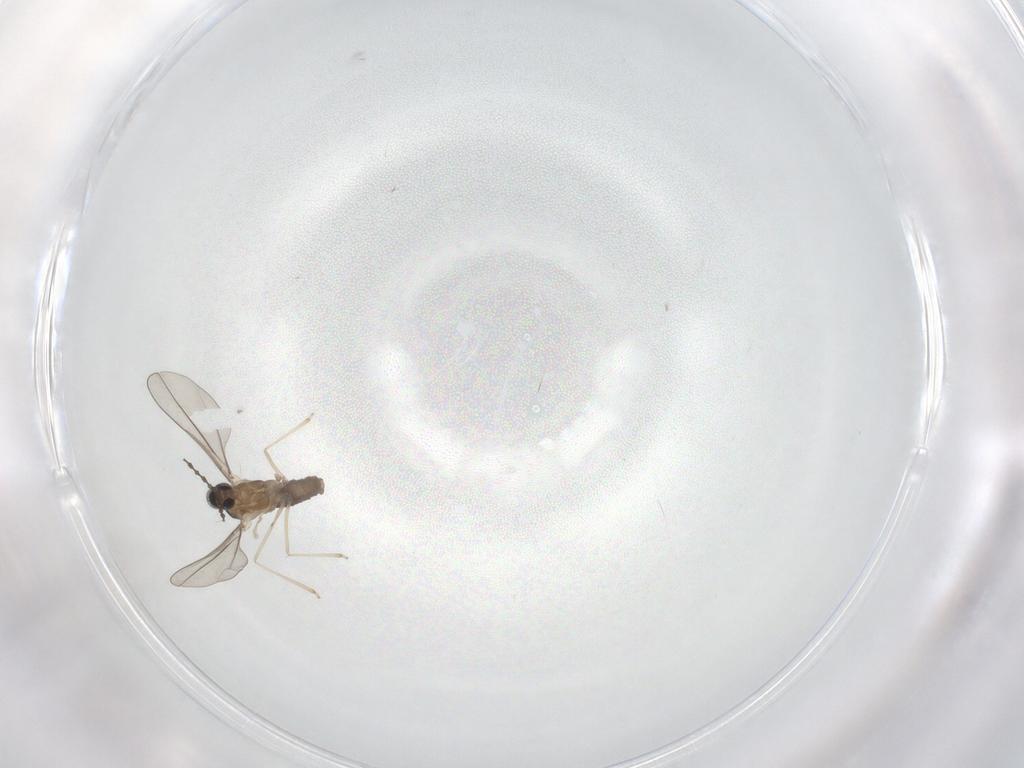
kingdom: Animalia
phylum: Arthropoda
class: Insecta
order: Diptera
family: Cecidomyiidae
